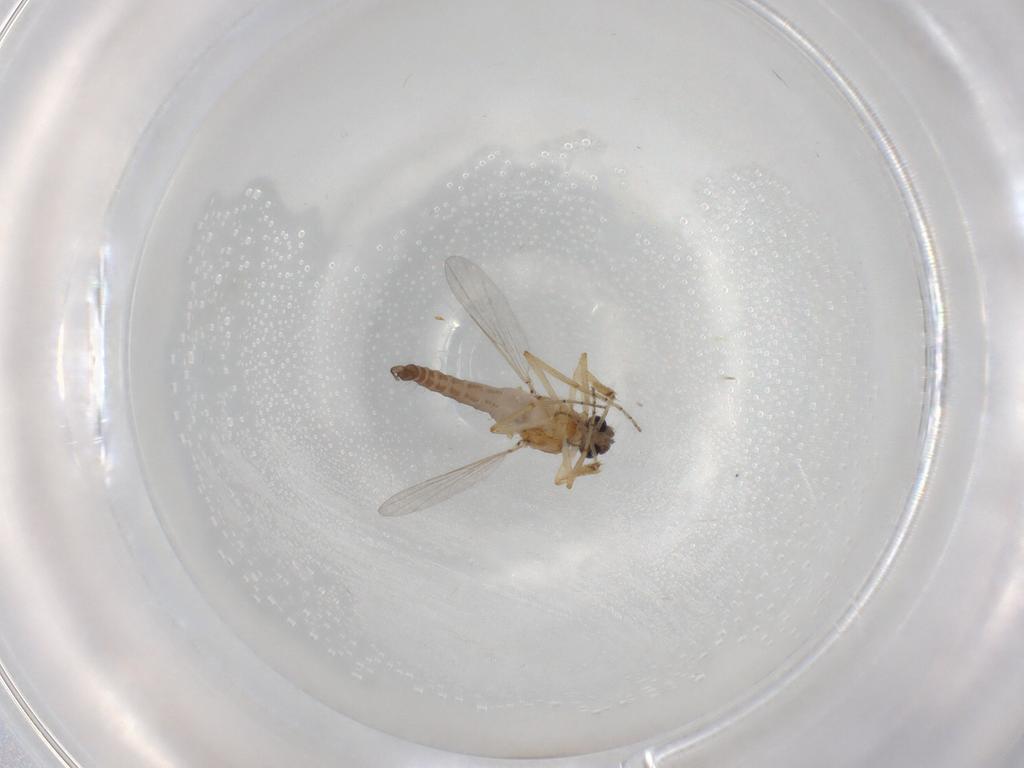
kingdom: Animalia
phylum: Arthropoda
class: Insecta
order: Diptera
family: Ceratopogonidae
